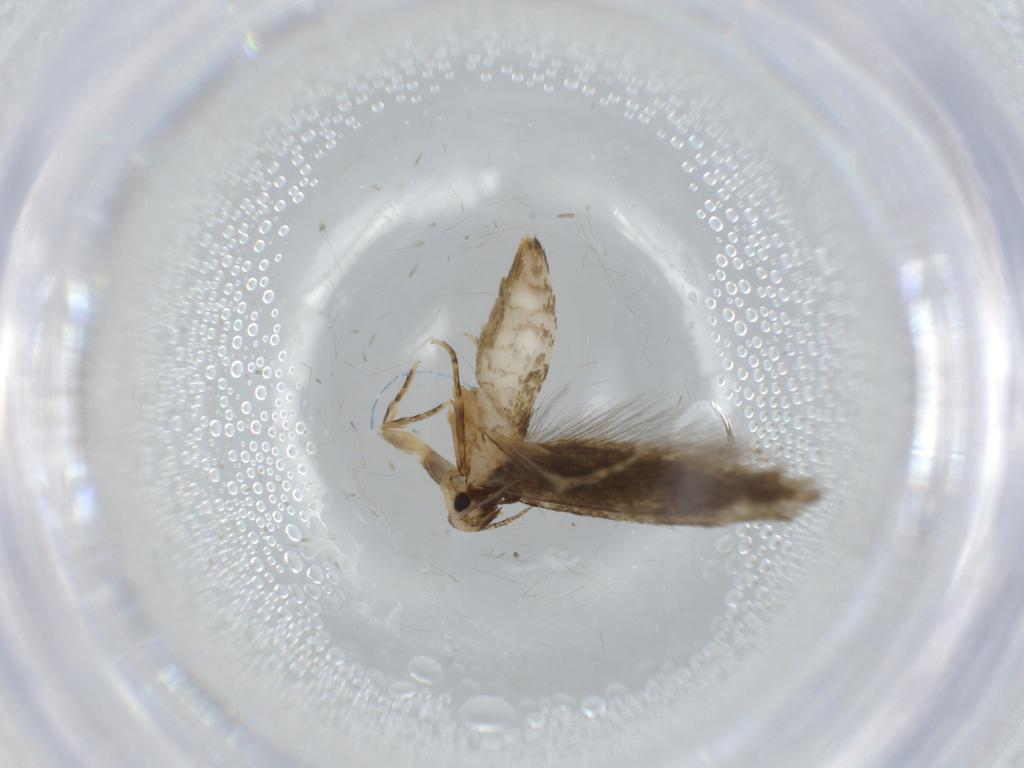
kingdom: Animalia
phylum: Arthropoda
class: Insecta
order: Lepidoptera
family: Tineidae
